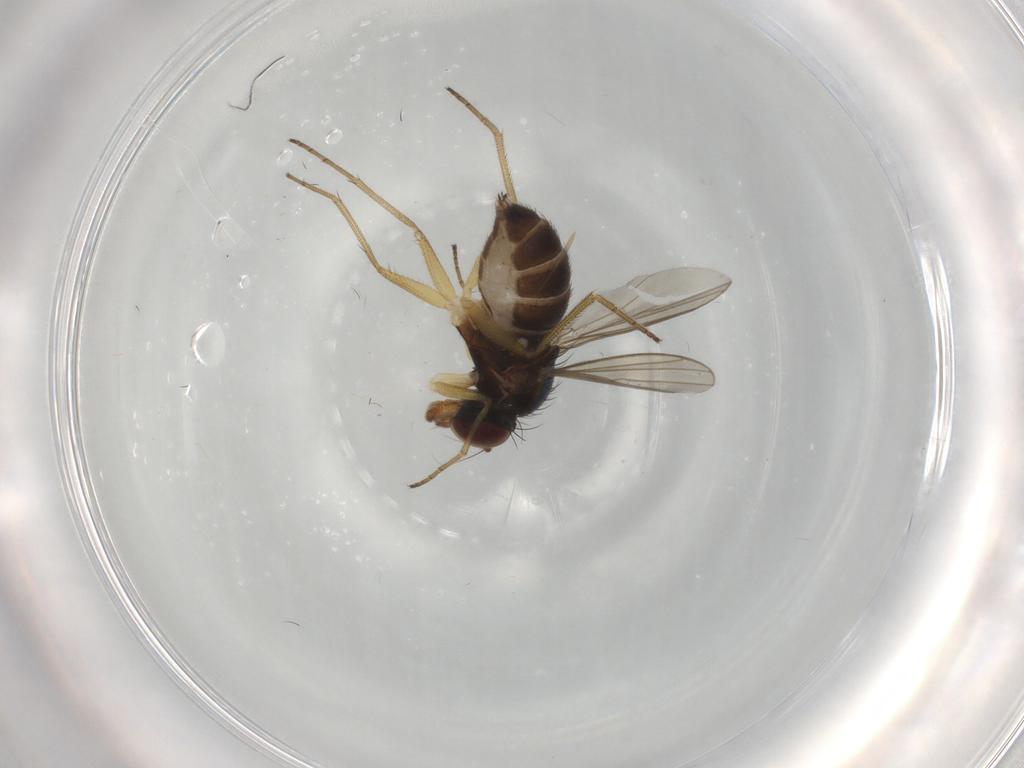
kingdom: Animalia
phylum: Arthropoda
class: Insecta
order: Diptera
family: Dolichopodidae
